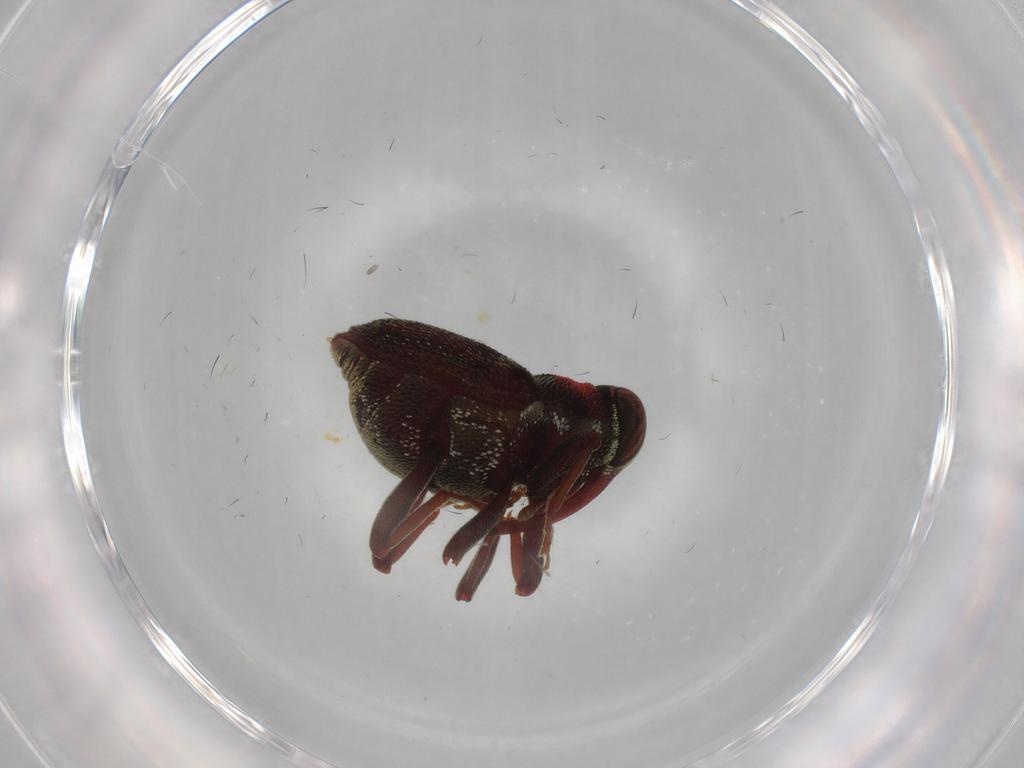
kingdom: Animalia
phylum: Arthropoda
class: Insecta
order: Coleoptera
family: Curculionidae
